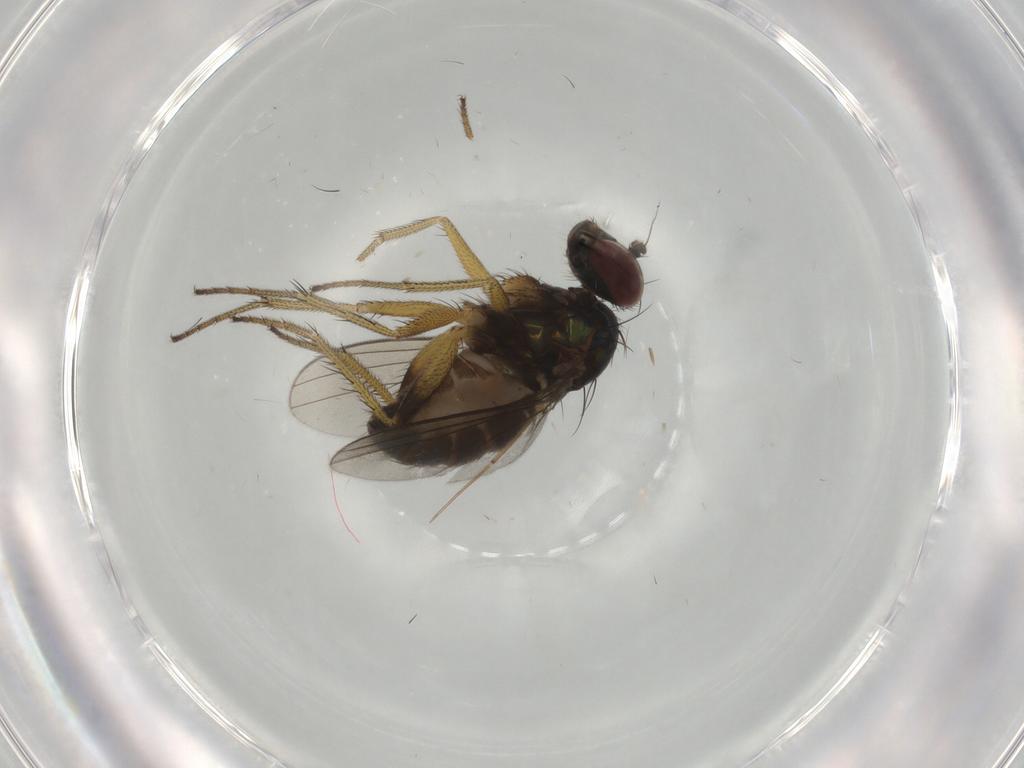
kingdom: Animalia
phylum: Arthropoda
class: Insecta
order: Diptera
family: Dolichopodidae
